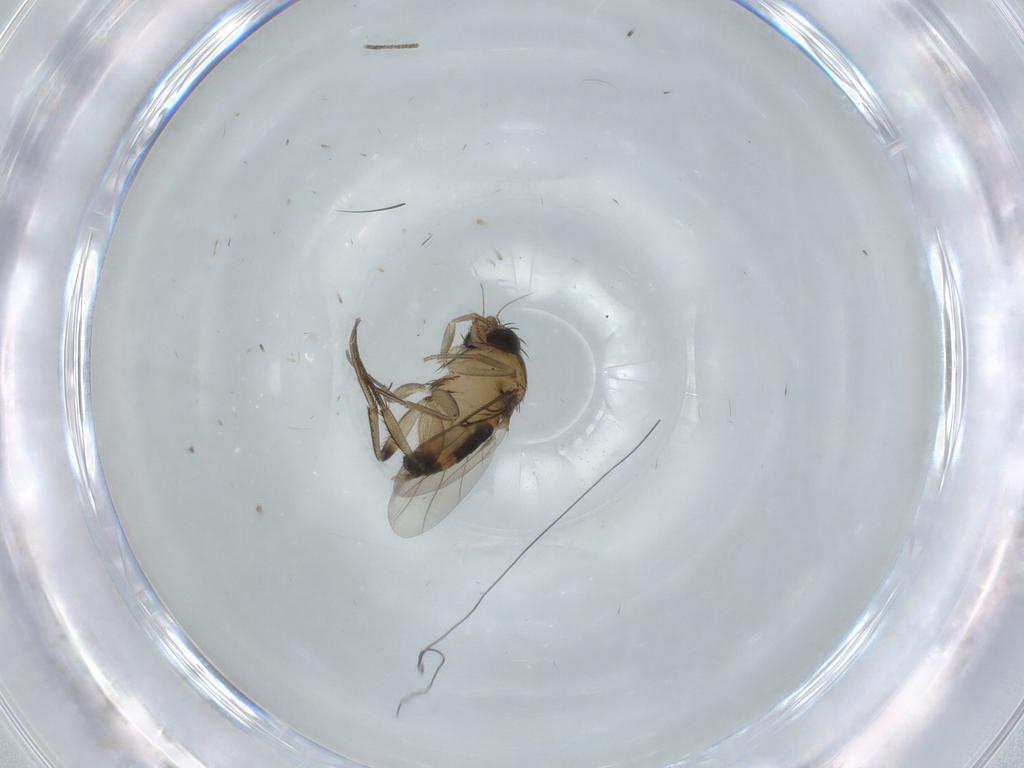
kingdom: Animalia
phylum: Arthropoda
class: Insecta
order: Diptera
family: Phoridae
